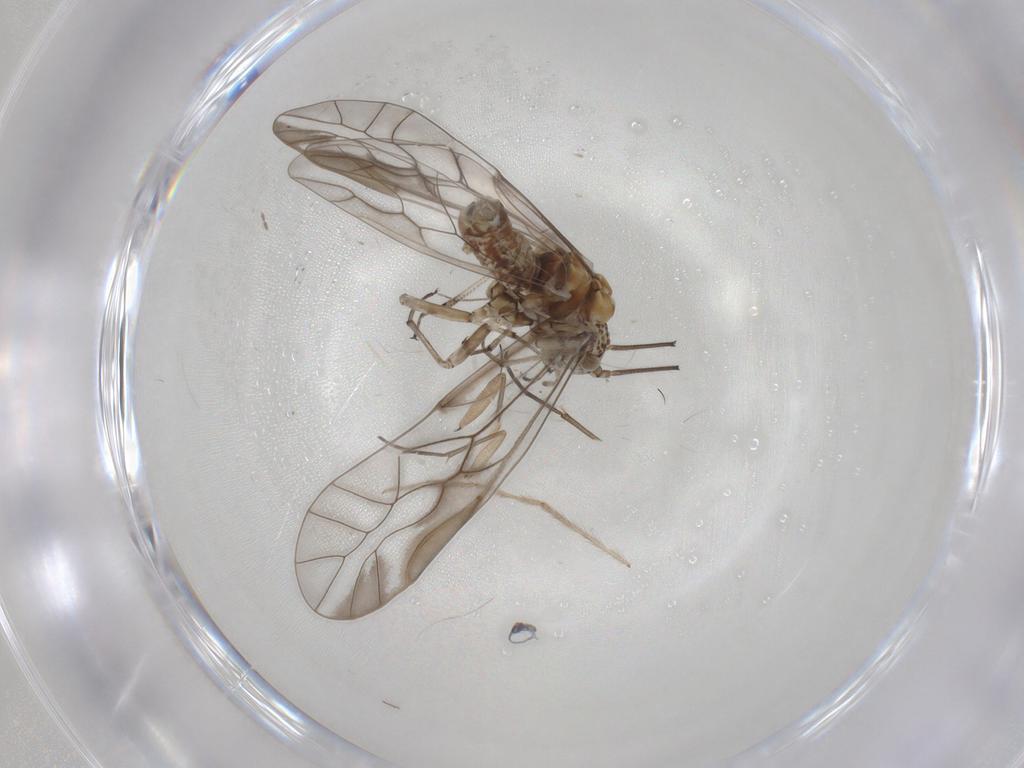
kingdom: Animalia
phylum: Arthropoda
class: Insecta
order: Psocodea
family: Psocidae
